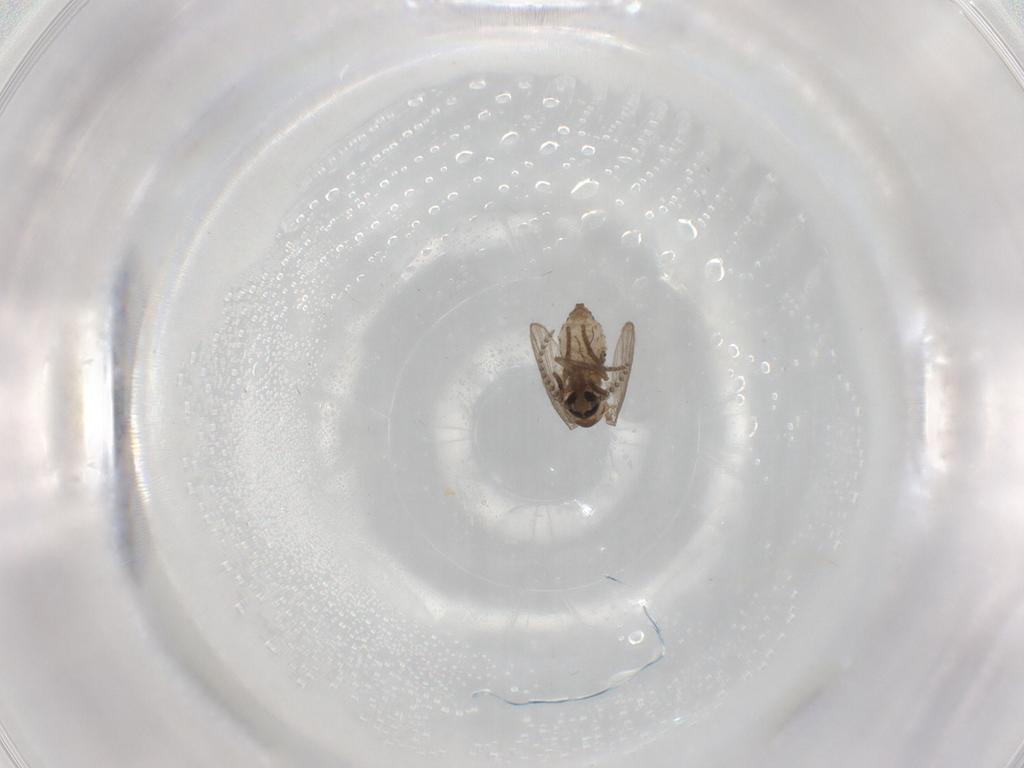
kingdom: Animalia
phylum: Arthropoda
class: Insecta
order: Diptera
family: Psychodidae
